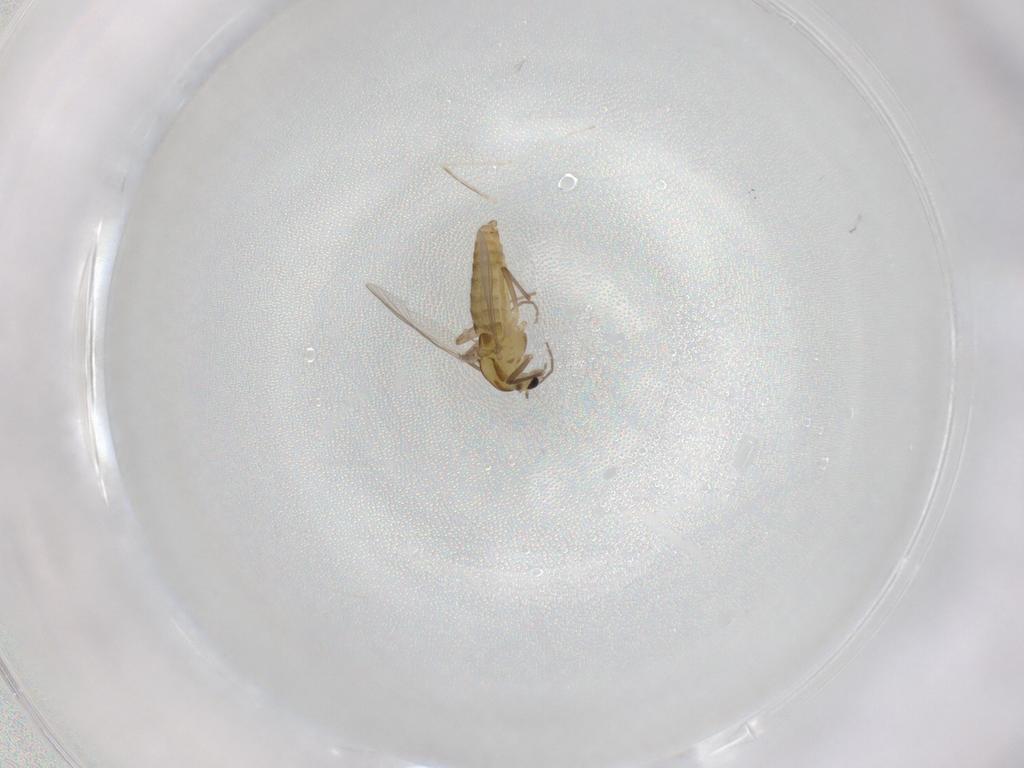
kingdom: Animalia
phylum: Arthropoda
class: Insecta
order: Diptera
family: Chironomidae
